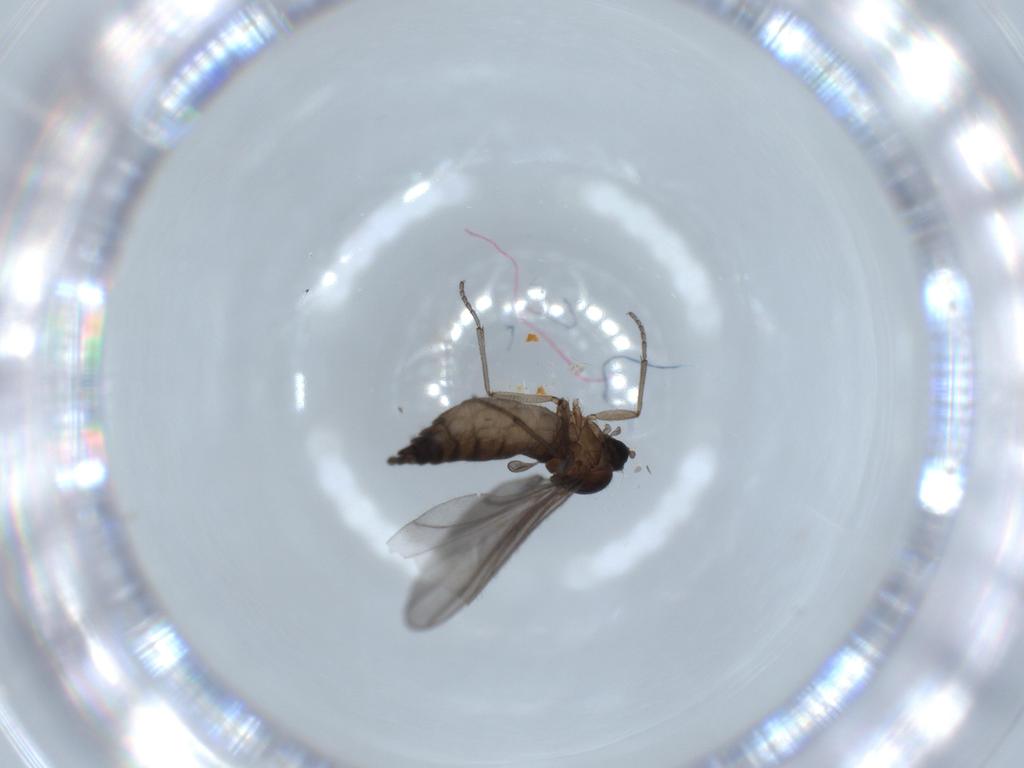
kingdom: Animalia
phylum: Arthropoda
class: Insecta
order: Diptera
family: Sciaridae
